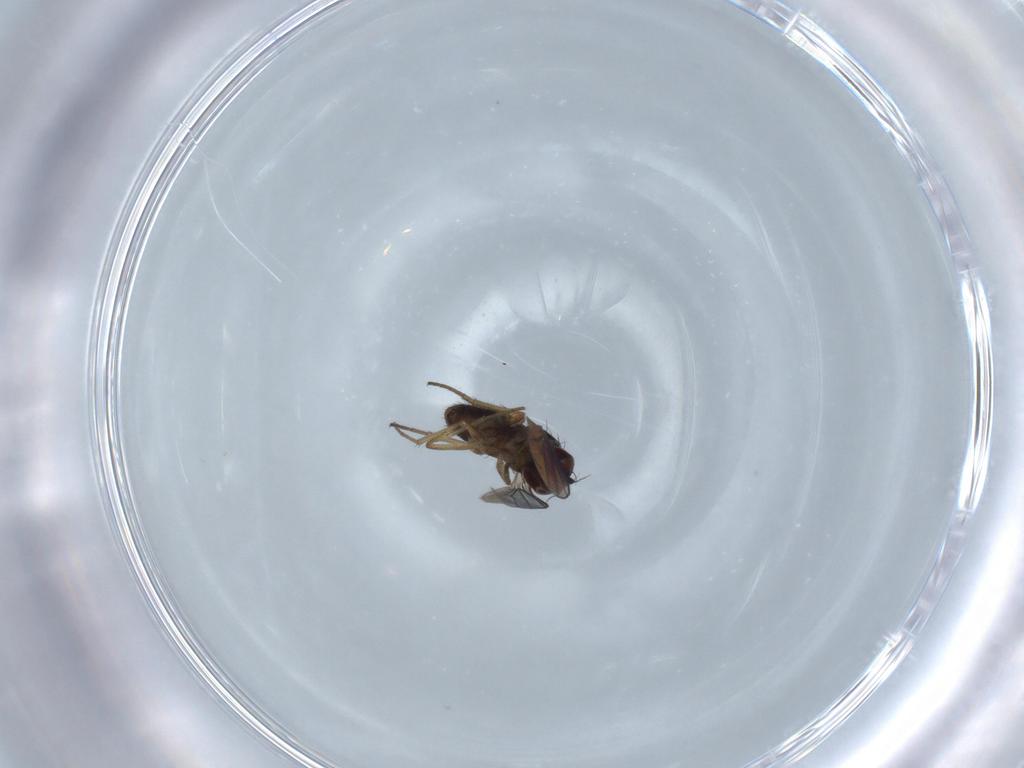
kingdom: Animalia
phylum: Arthropoda
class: Insecta
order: Diptera
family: Dolichopodidae
